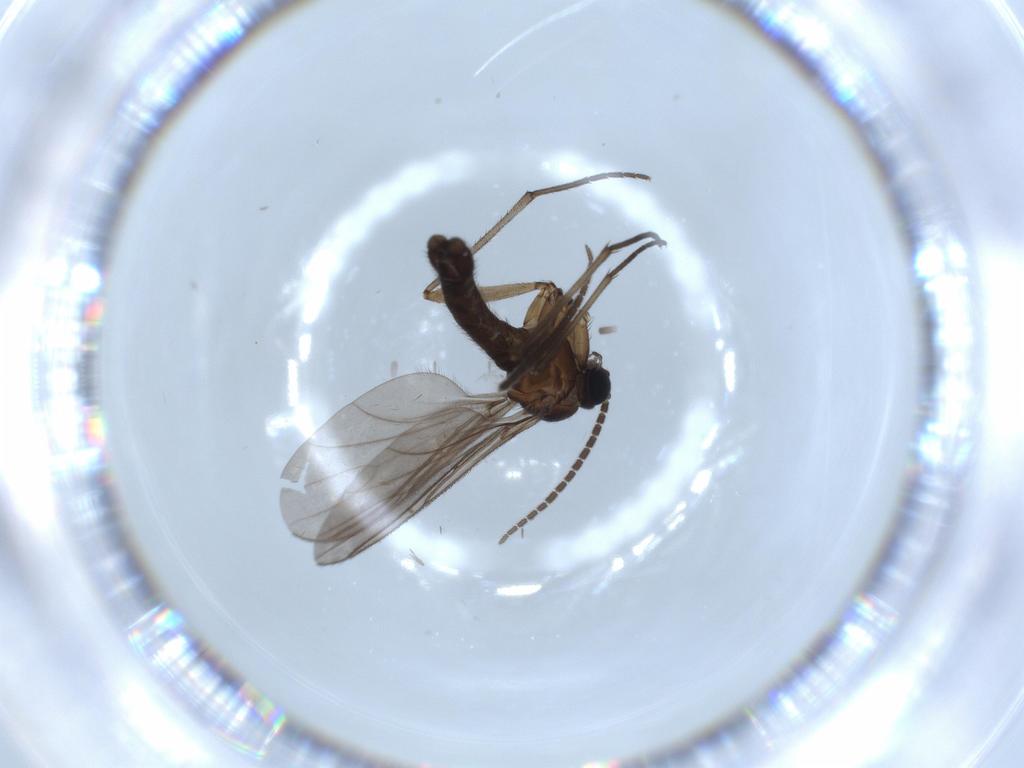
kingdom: Animalia
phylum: Arthropoda
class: Insecta
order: Diptera
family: Sciaridae
